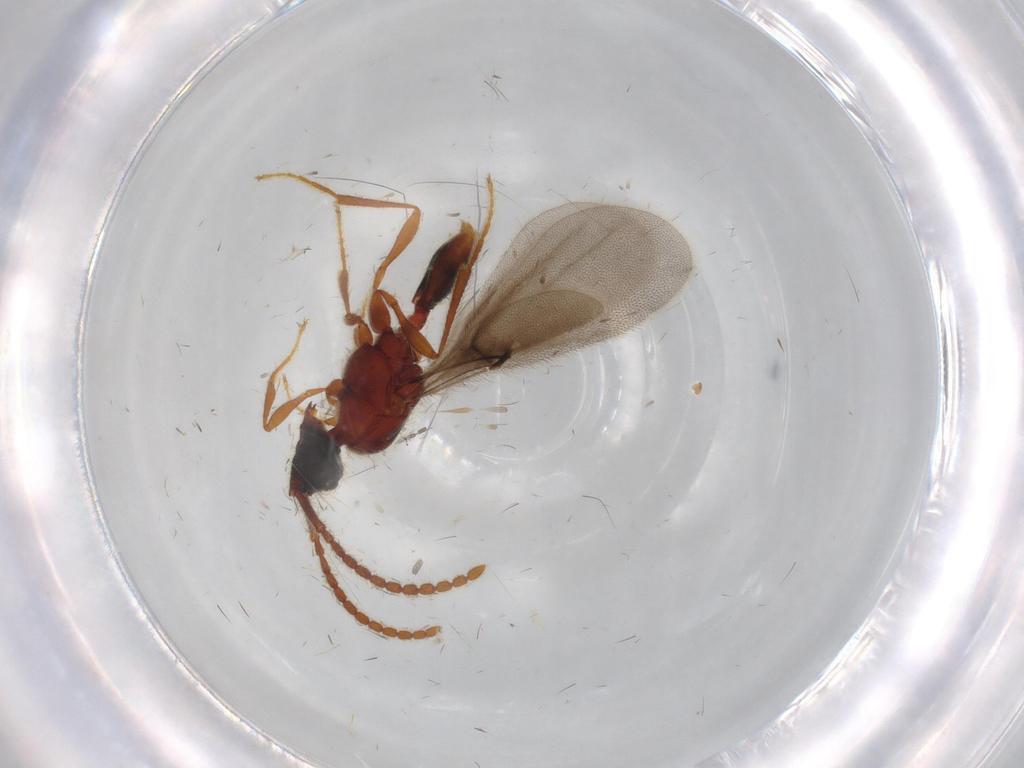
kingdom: Animalia
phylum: Arthropoda
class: Insecta
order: Hymenoptera
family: Diapriidae
